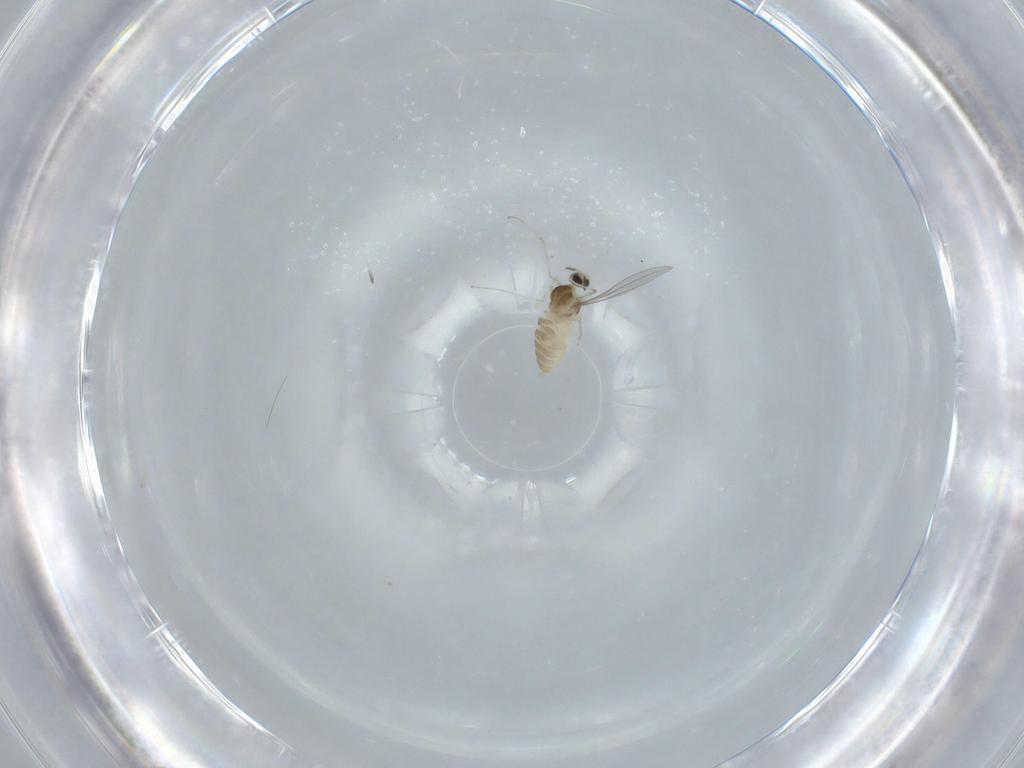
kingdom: Animalia
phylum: Arthropoda
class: Insecta
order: Diptera
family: Cecidomyiidae
